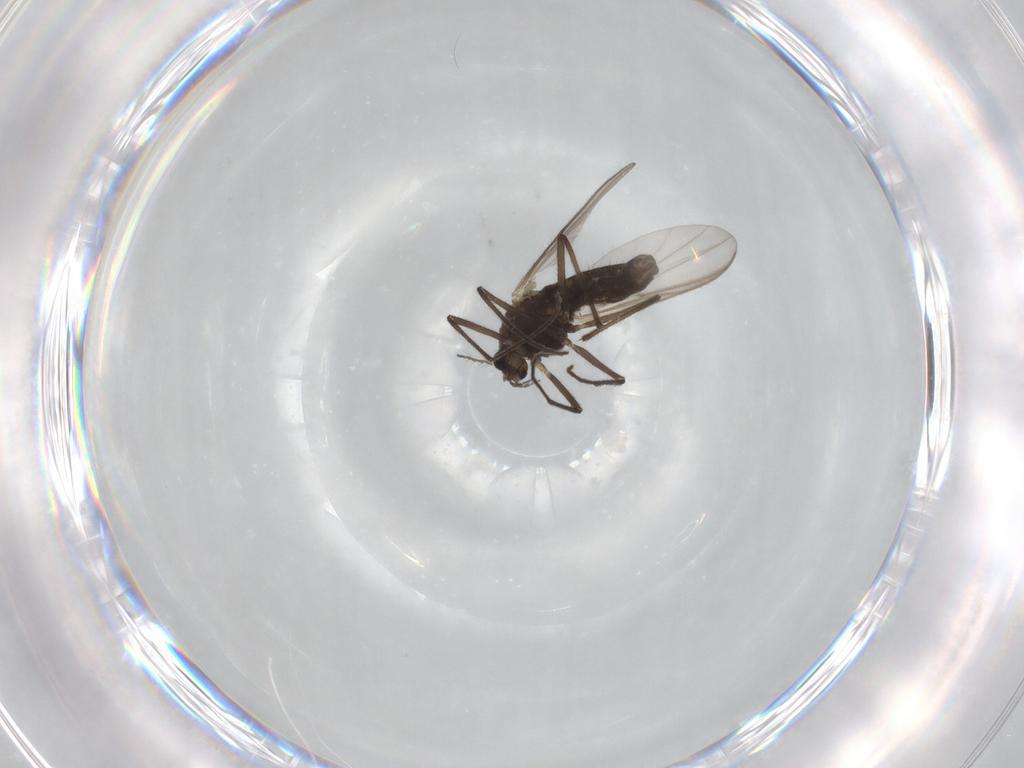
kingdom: Animalia
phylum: Arthropoda
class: Insecta
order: Diptera
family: Chironomidae
